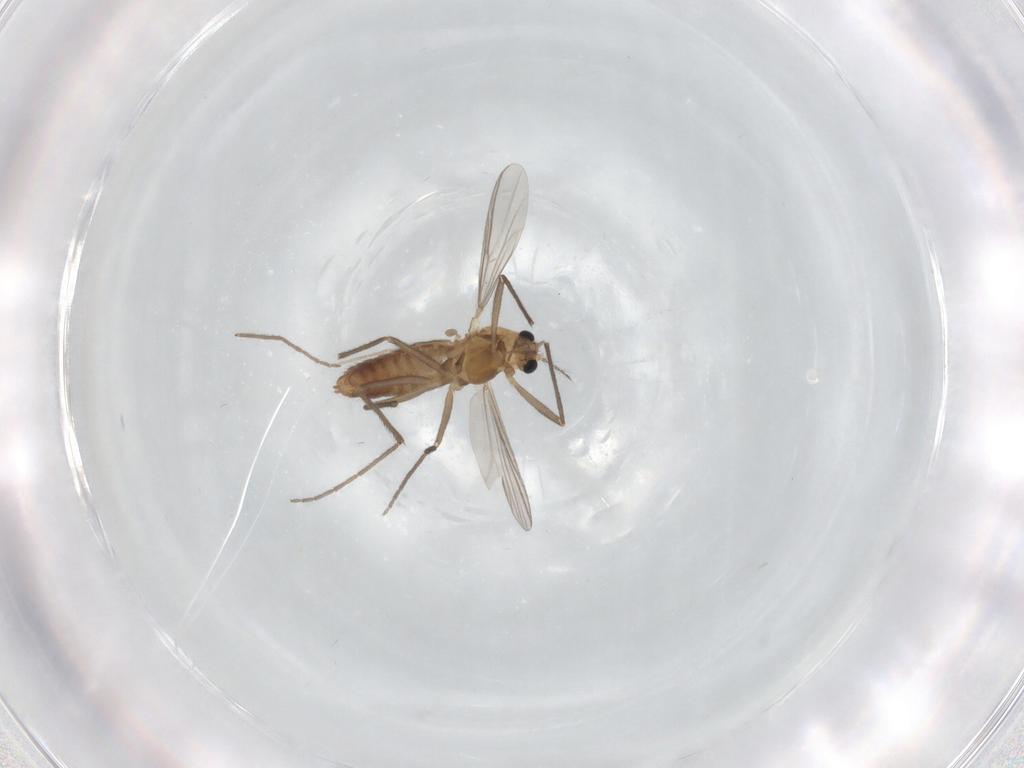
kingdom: Animalia
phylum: Arthropoda
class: Insecta
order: Diptera
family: Chironomidae
